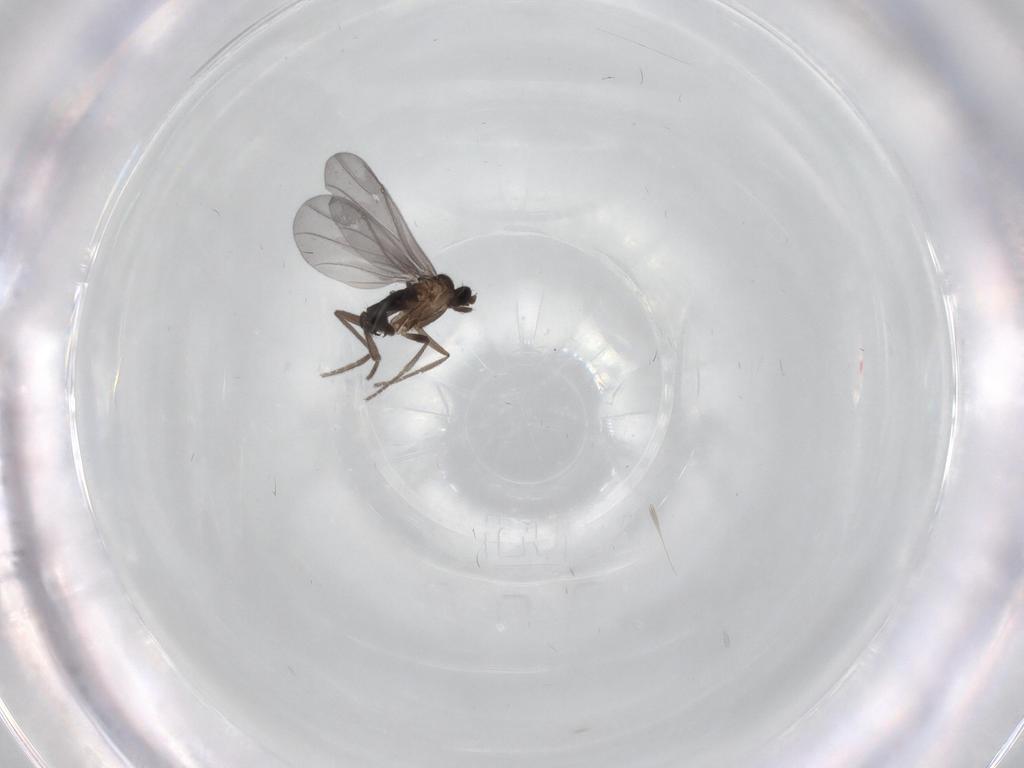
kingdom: Animalia
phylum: Arthropoda
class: Insecta
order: Diptera
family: Phoridae
